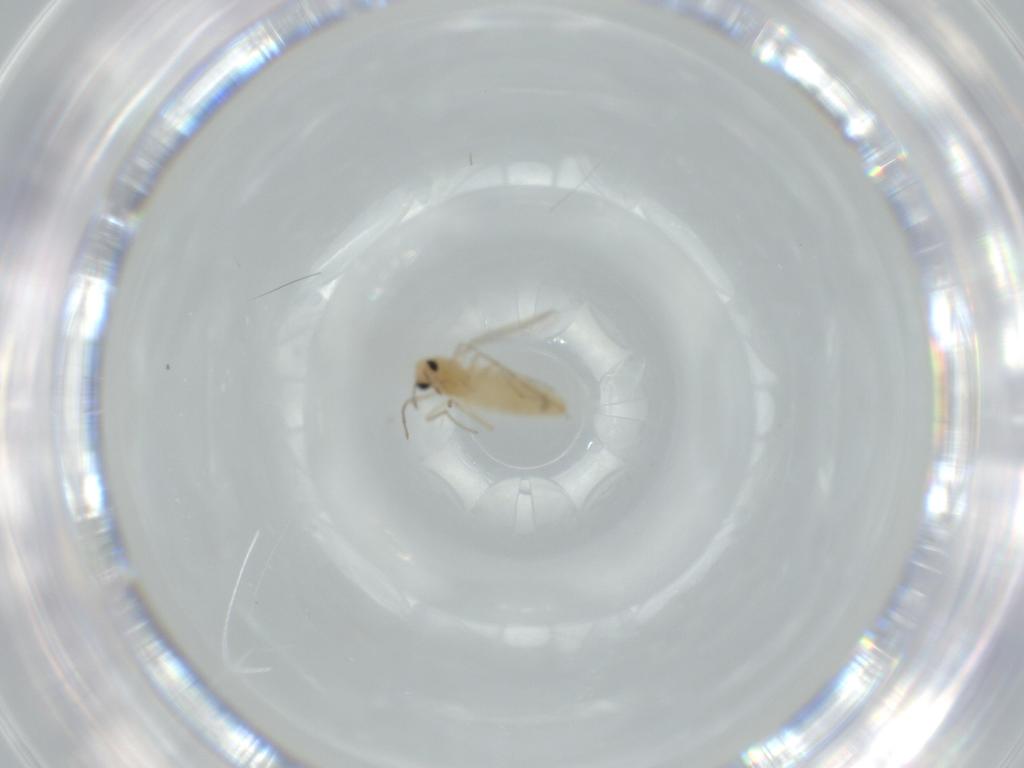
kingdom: Animalia
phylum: Arthropoda
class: Insecta
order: Diptera
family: Chironomidae
